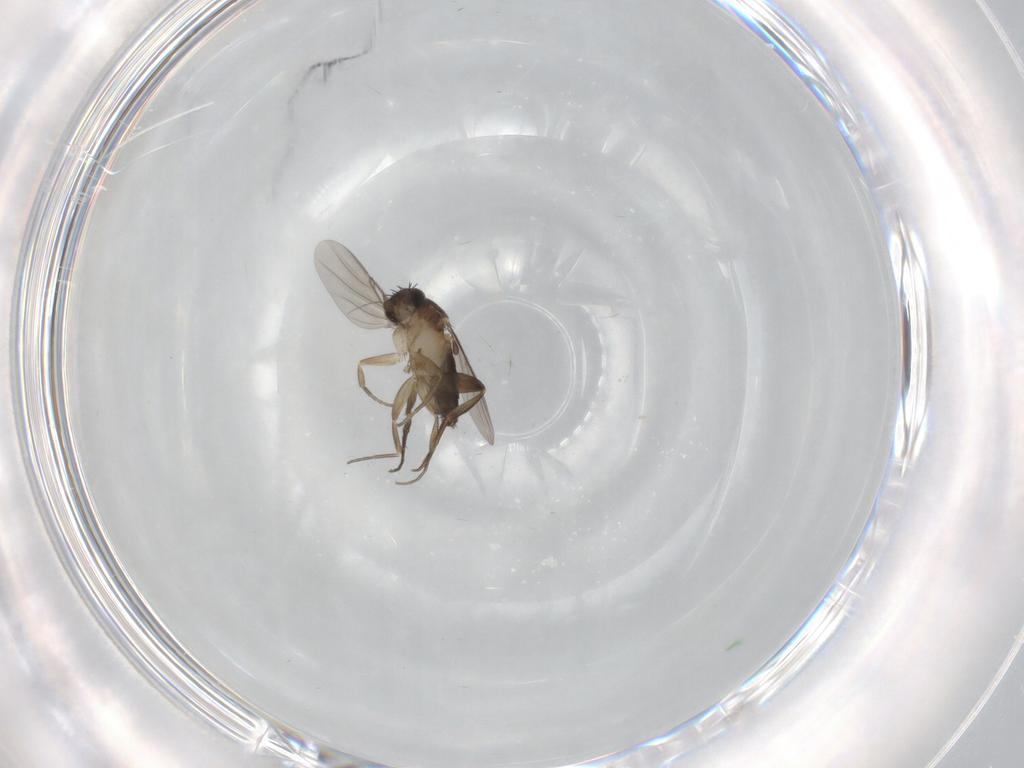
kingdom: Animalia
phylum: Arthropoda
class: Insecta
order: Diptera
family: Phoridae
